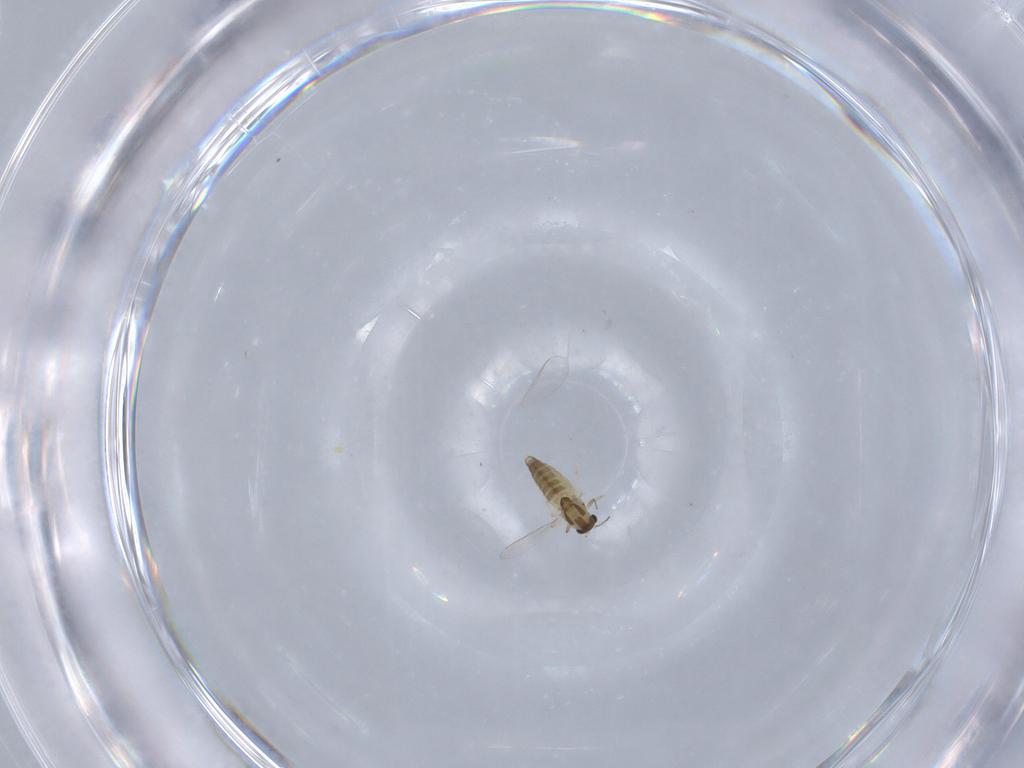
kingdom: Animalia
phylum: Arthropoda
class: Insecta
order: Diptera
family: Chironomidae
